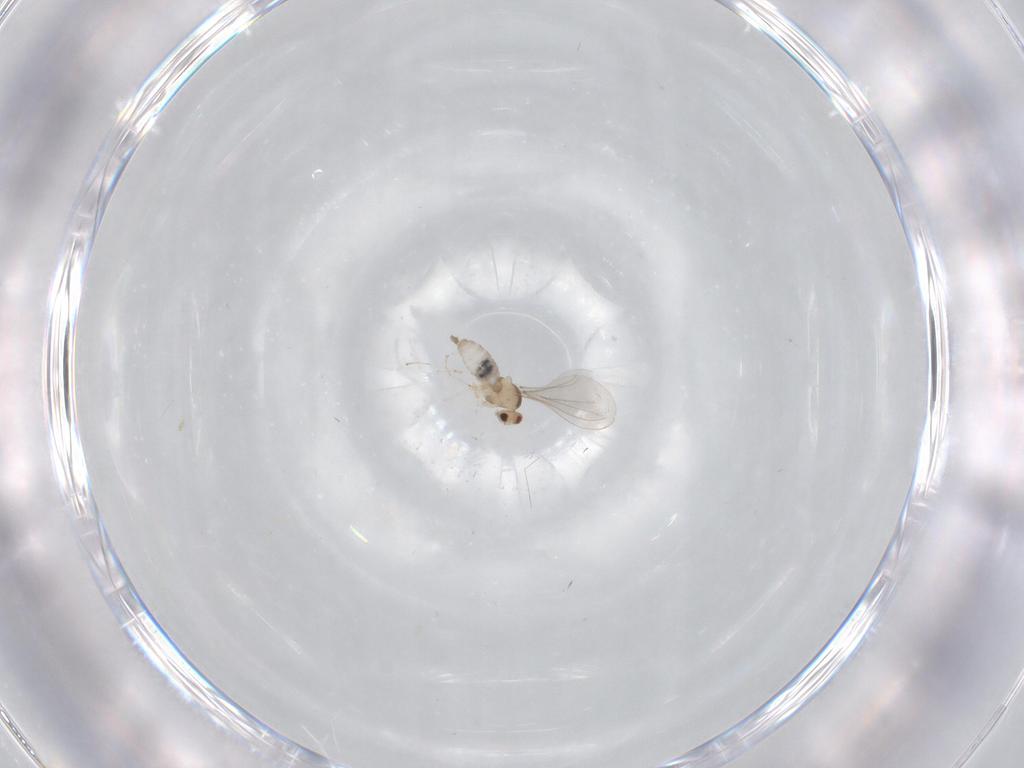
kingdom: Animalia
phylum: Arthropoda
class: Insecta
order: Diptera
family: Cecidomyiidae
